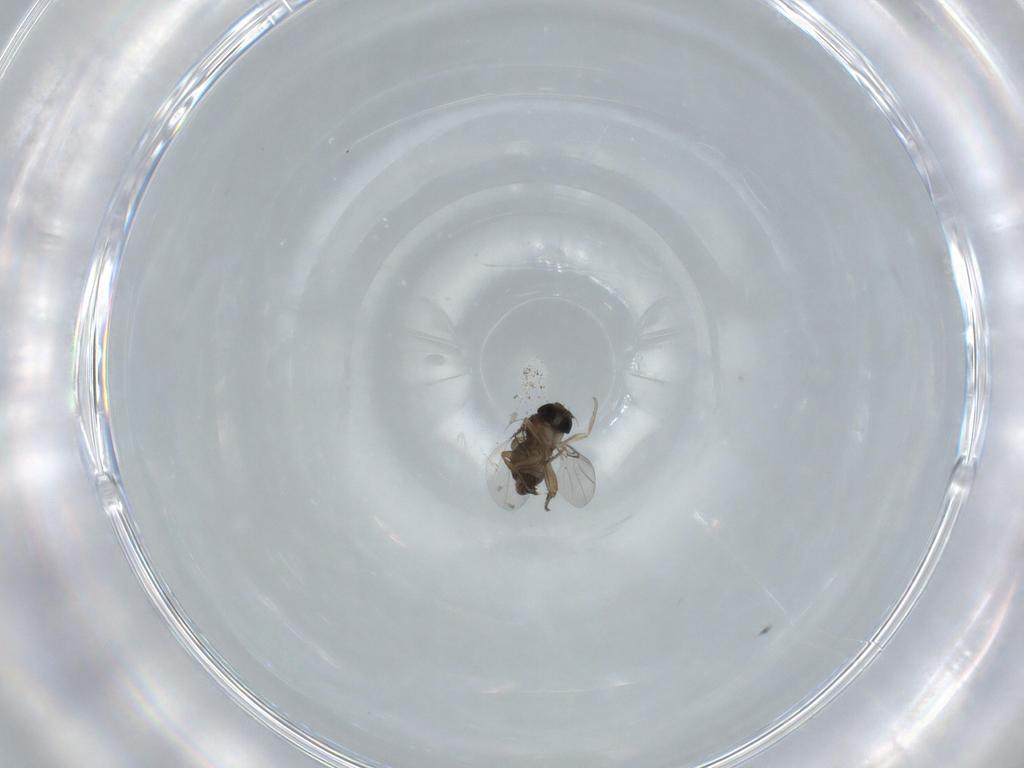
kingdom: Animalia
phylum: Arthropoda
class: Insecta
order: Diptera
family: Phoridae
